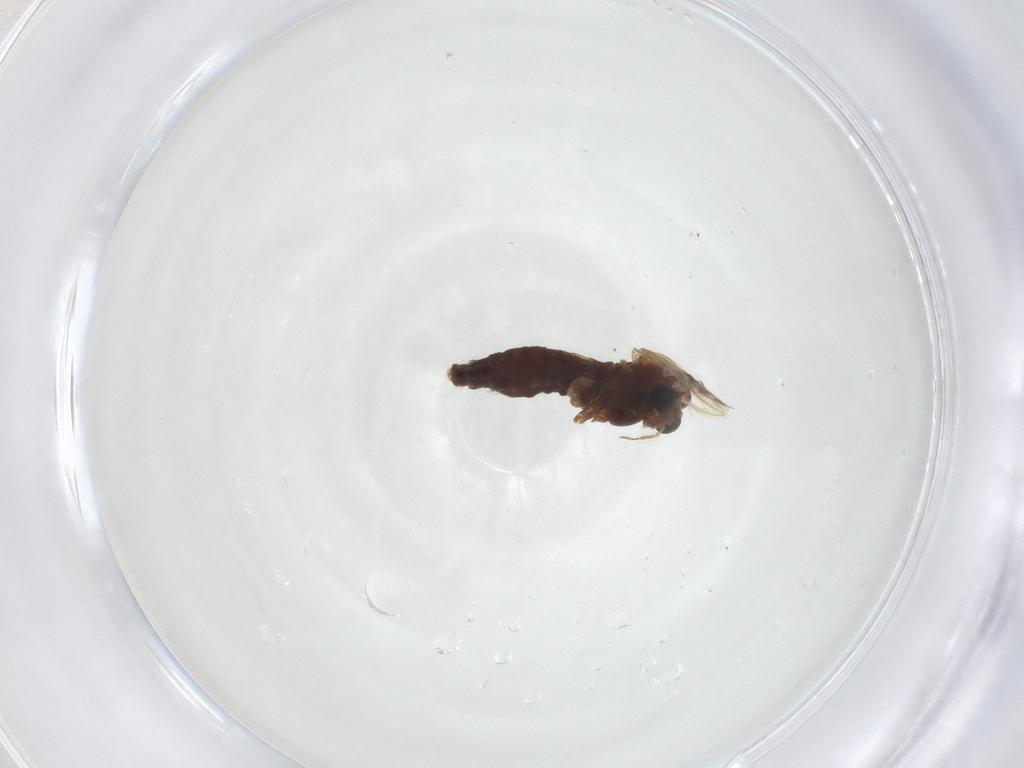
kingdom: Animalia
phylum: Arthropoda
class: Insecta
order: Diptera
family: Chironomidae
